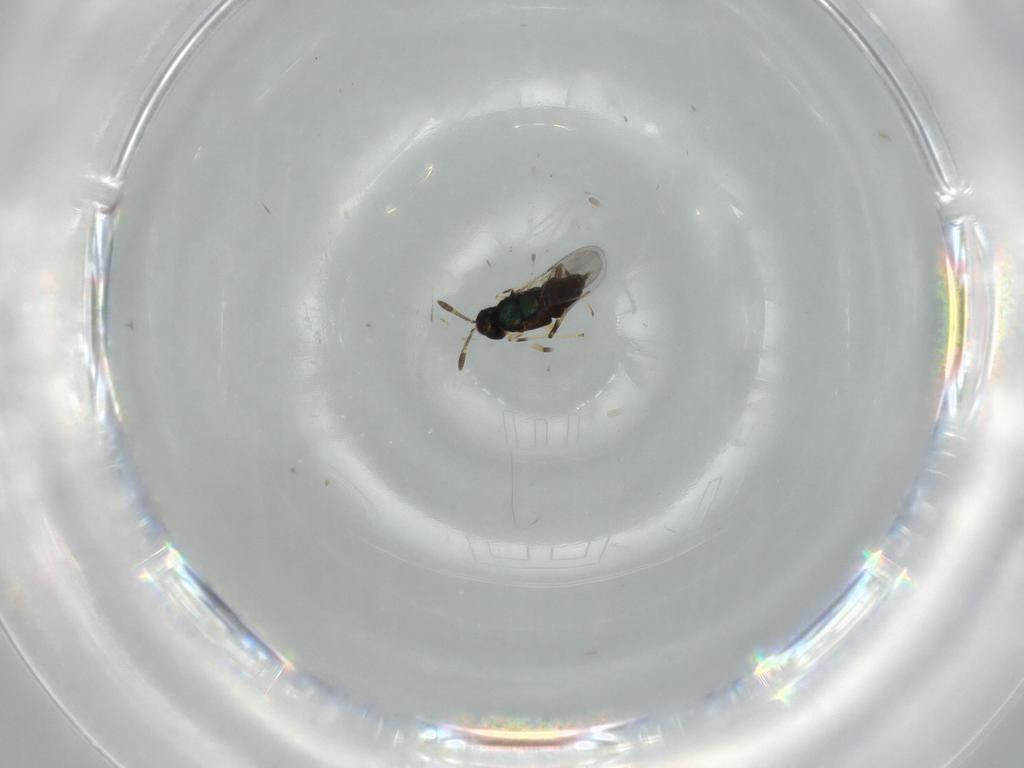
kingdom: Animalia
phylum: Arthropoda
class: Insecta
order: Hymenoptera
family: Scelionidae
